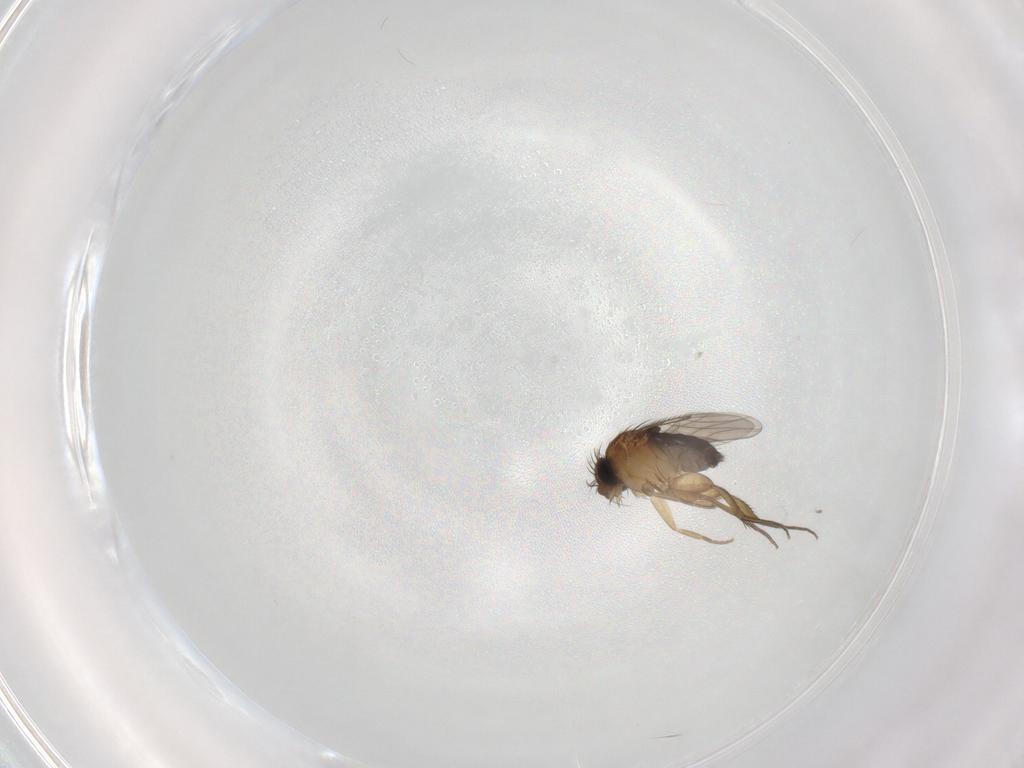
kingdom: Animalia
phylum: Arthropoda
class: Insecta
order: Diptera
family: Phoridae
